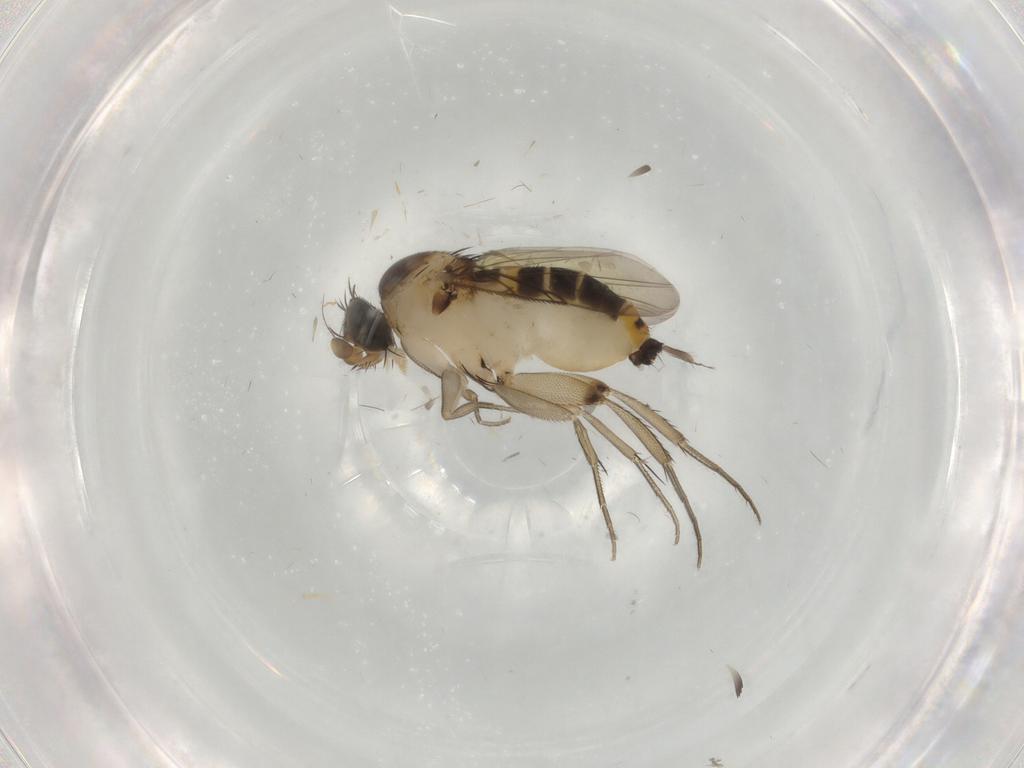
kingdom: Animalia
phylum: Arthropoda
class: Insecta
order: Diptera
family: Phoridae
